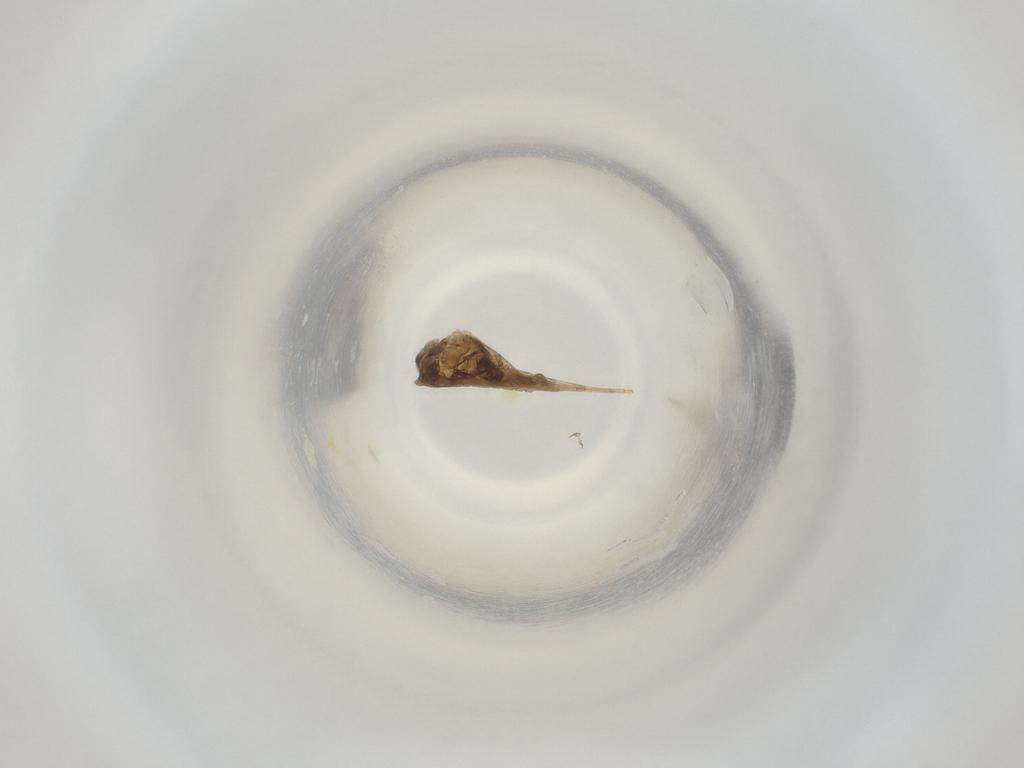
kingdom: Animalia
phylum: Arthropoda
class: Insecta
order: Diptera
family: Cecidomyiidae
